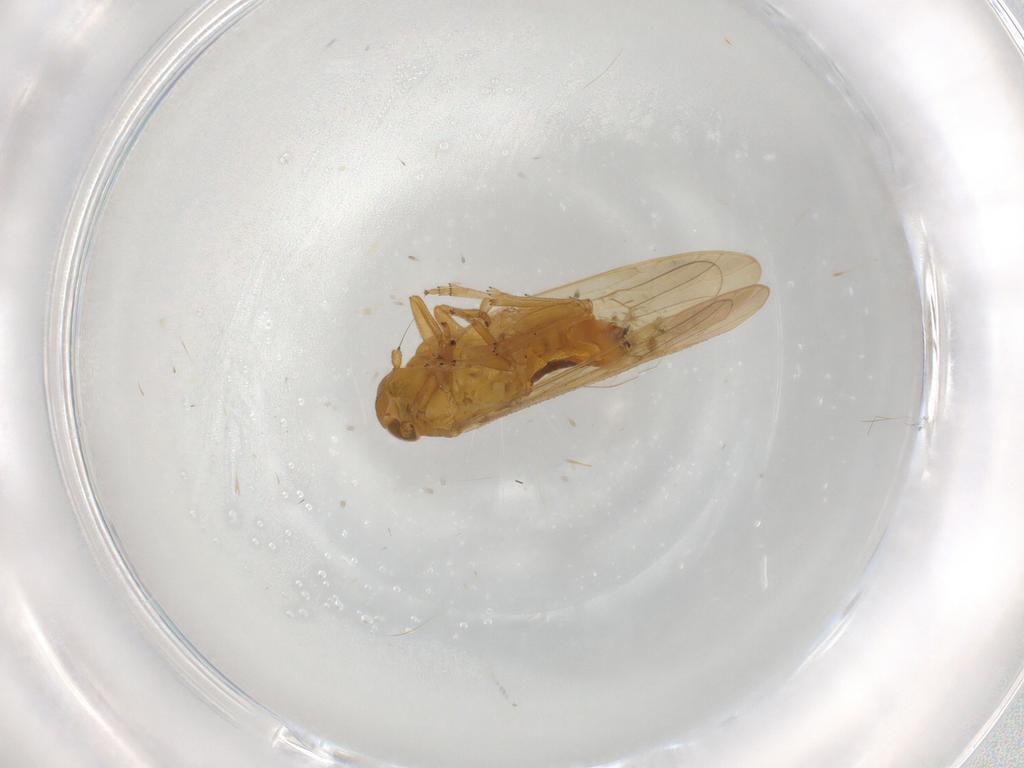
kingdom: Animalia
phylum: Arthropoda
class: Insecta
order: Hemiptera
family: Delphacidae
